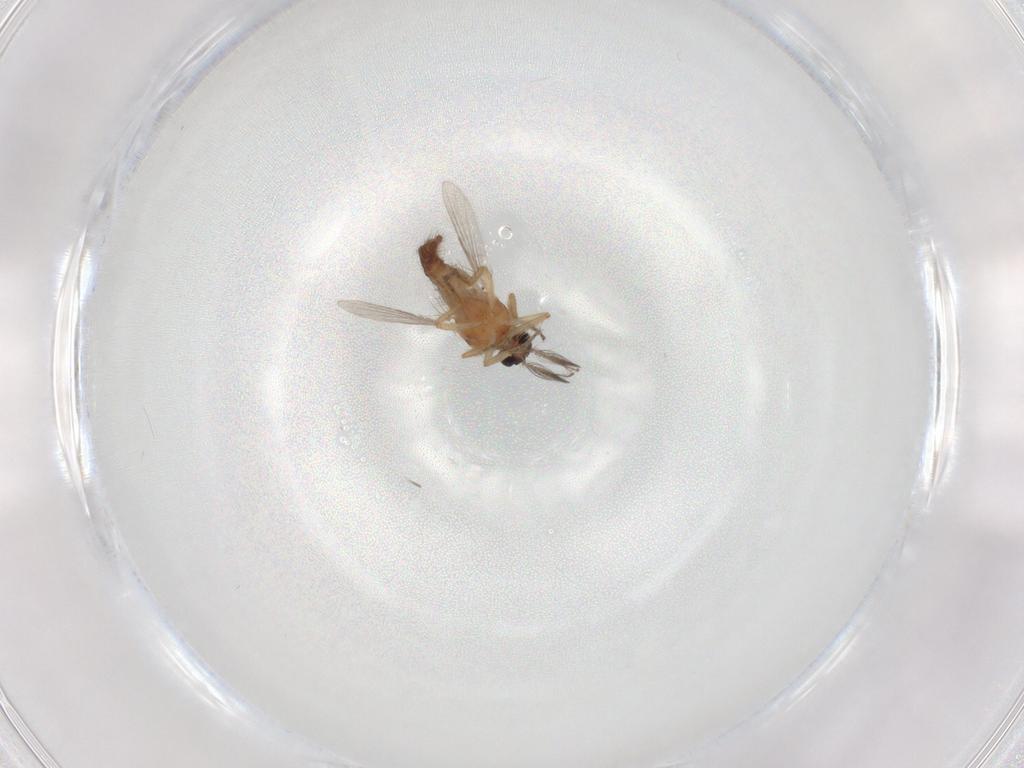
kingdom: Animalia
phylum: Arthropoda
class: Insecta
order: Diptera
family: Ceratopogonidae
